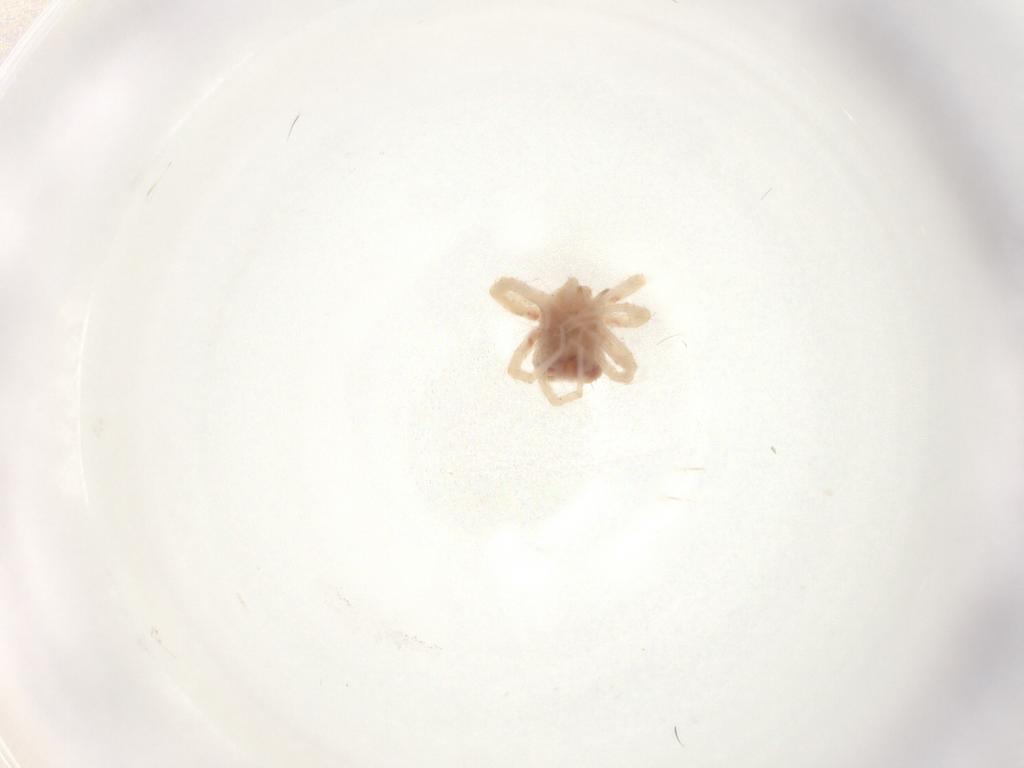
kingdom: Animalia
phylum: Arthropoda
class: Arachnida
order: Trombidiformes
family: Anystidae
